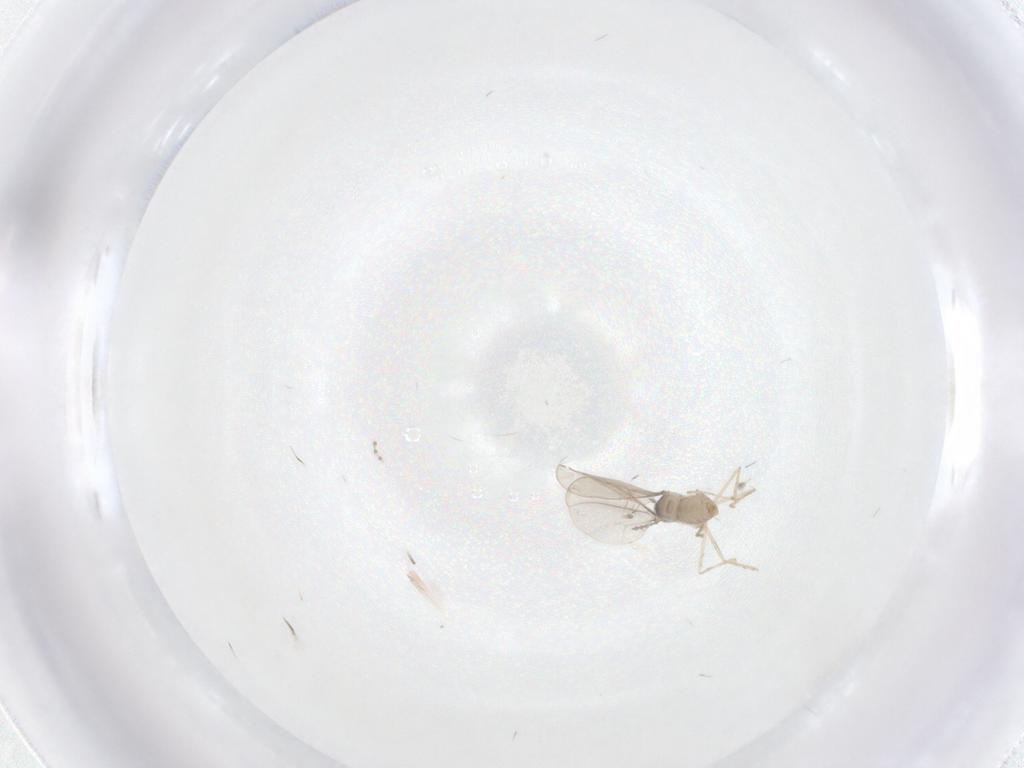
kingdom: Animalia
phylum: Arthropoda
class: Insecta
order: Diptera
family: Cecidomyiidae
